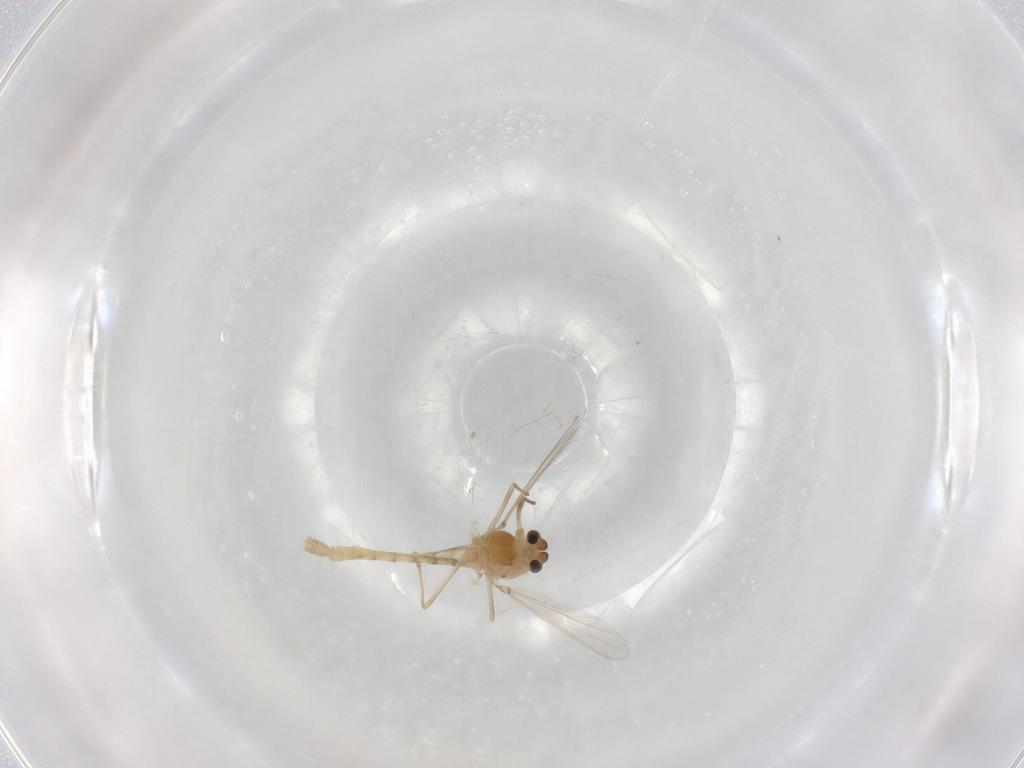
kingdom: Animalia
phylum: Arthropoda
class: Insecta
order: Diptera
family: Chironomidae
